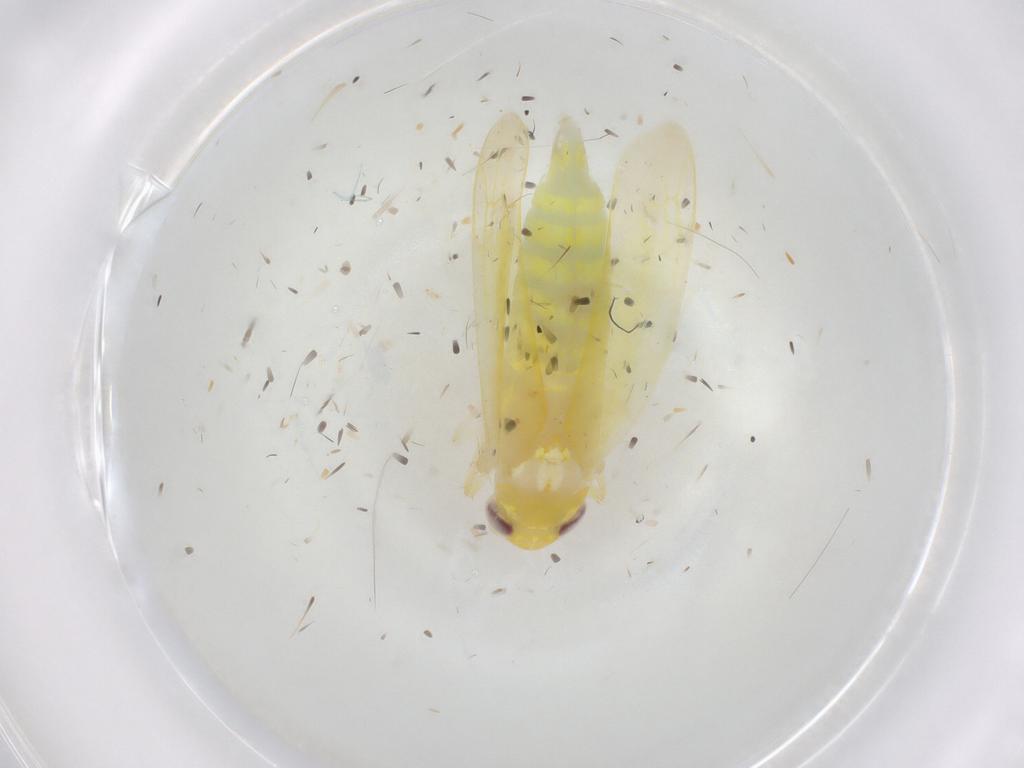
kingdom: Animalia
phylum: Arthropoda
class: Insecta
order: Hemiptera
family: Cicadellidae
